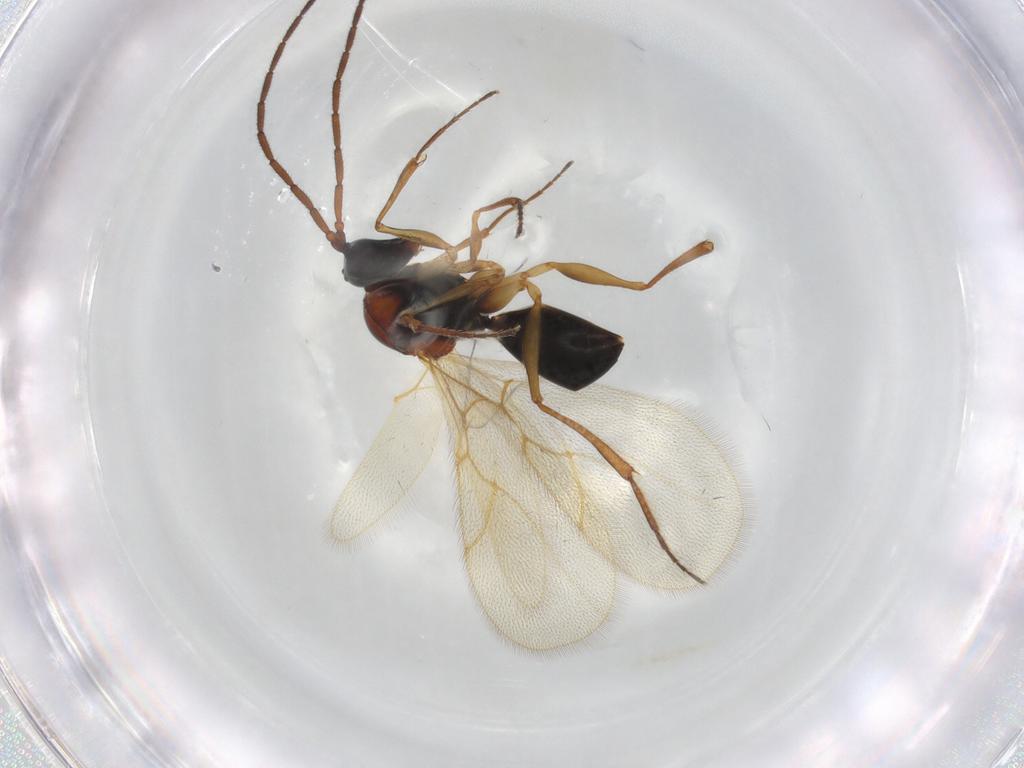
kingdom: Animalia
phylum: Arthropoda
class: Insecta
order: Hymenoptera
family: Figitidae
